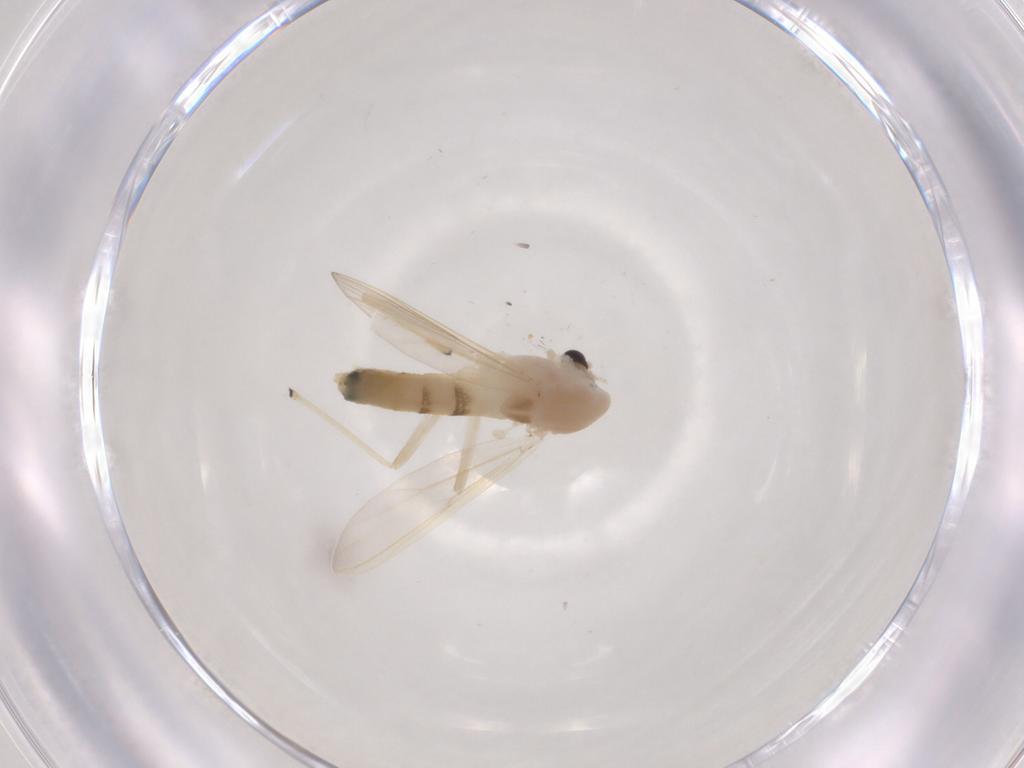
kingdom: Animalia
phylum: Arthropoda
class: Insecta
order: Diptera
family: Chironomidae
